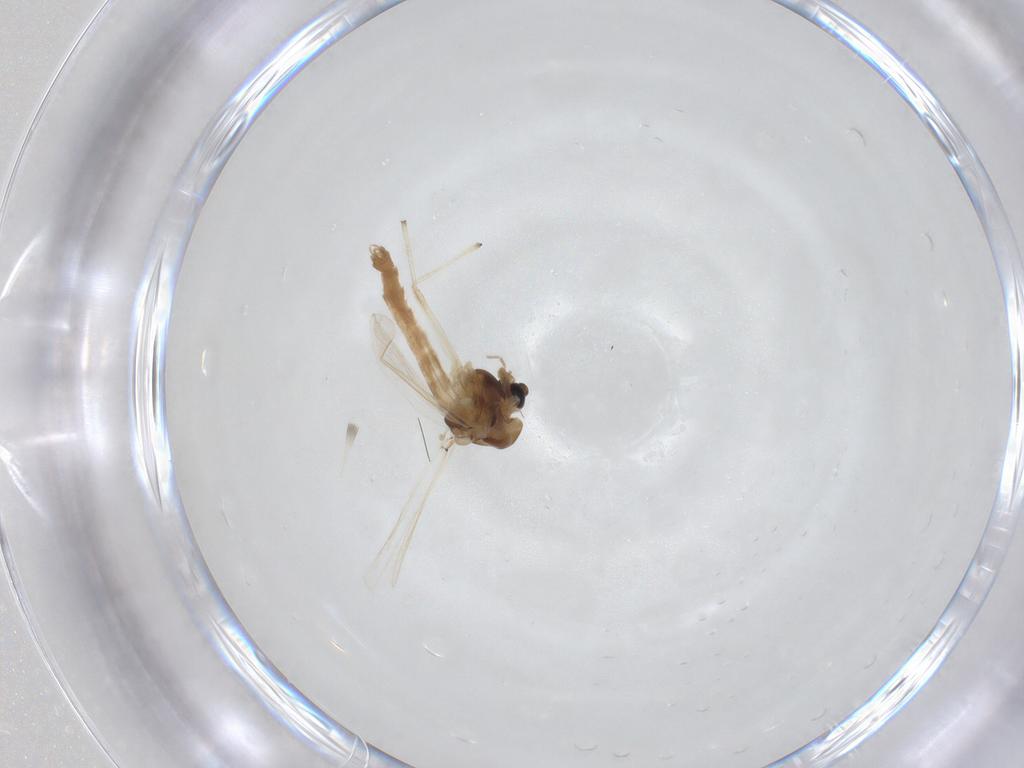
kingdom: Animalia
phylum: Arthropoda
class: Insecta
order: Diptera
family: Chironomidae
